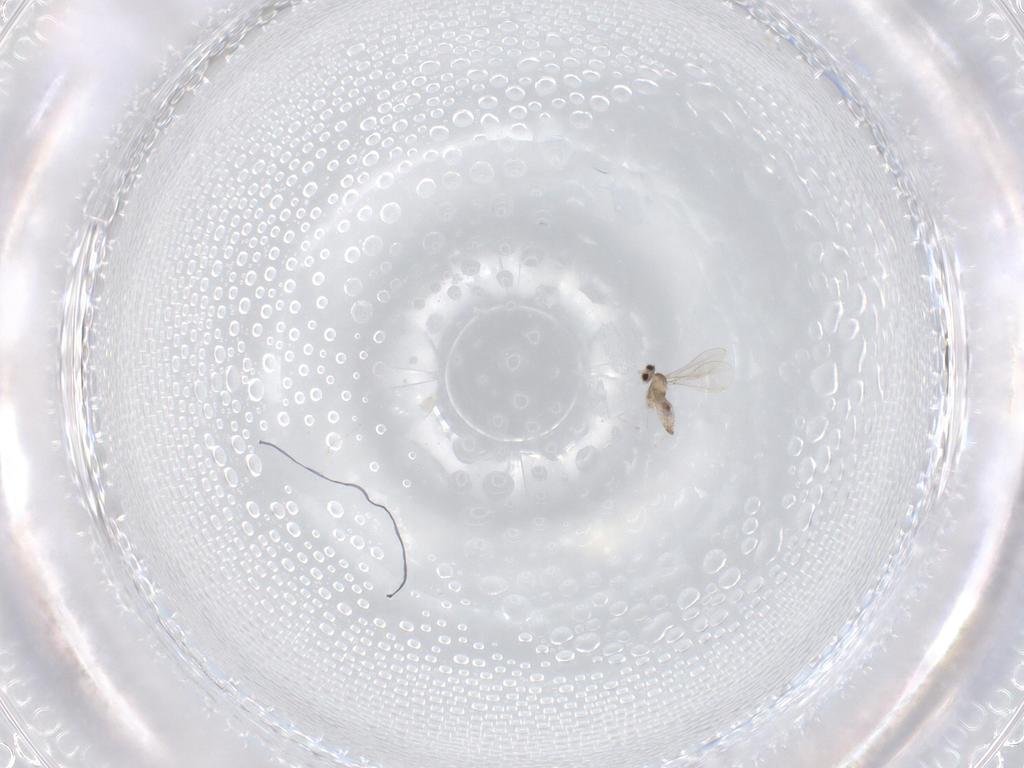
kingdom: Animalia
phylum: Arthropoda
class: Insecta
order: Diptera
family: Cecidomyiidae
